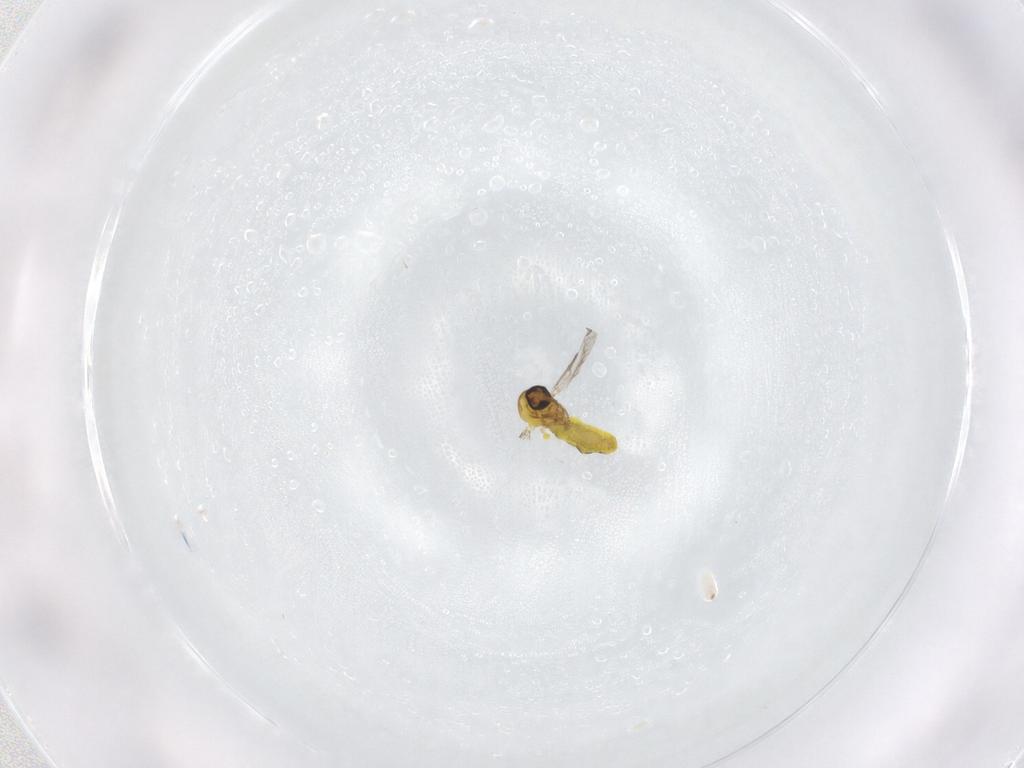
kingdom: Animalia
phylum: Arthropoda
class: Insecta
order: Diptera
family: Ceratopogonidae
